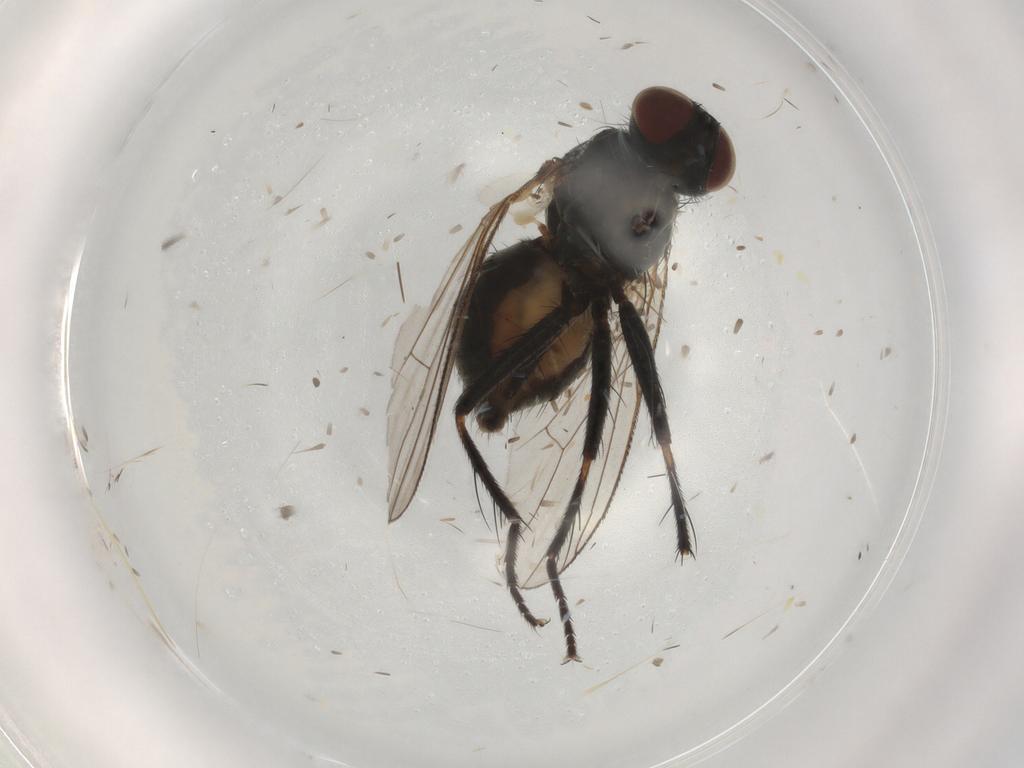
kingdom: Animalia
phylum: Arthropoda
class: Insecta
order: Diptera
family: Muscidae
